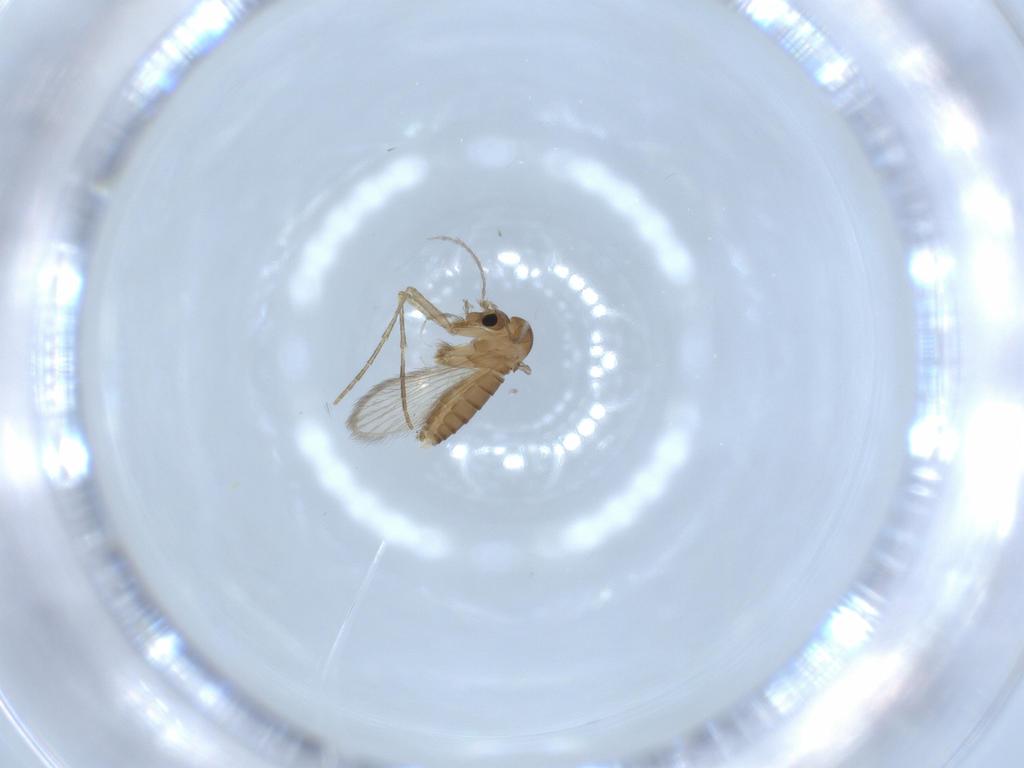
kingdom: Animalia
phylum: Arthropoda
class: Insecta
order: Diptera
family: Psychodidae
